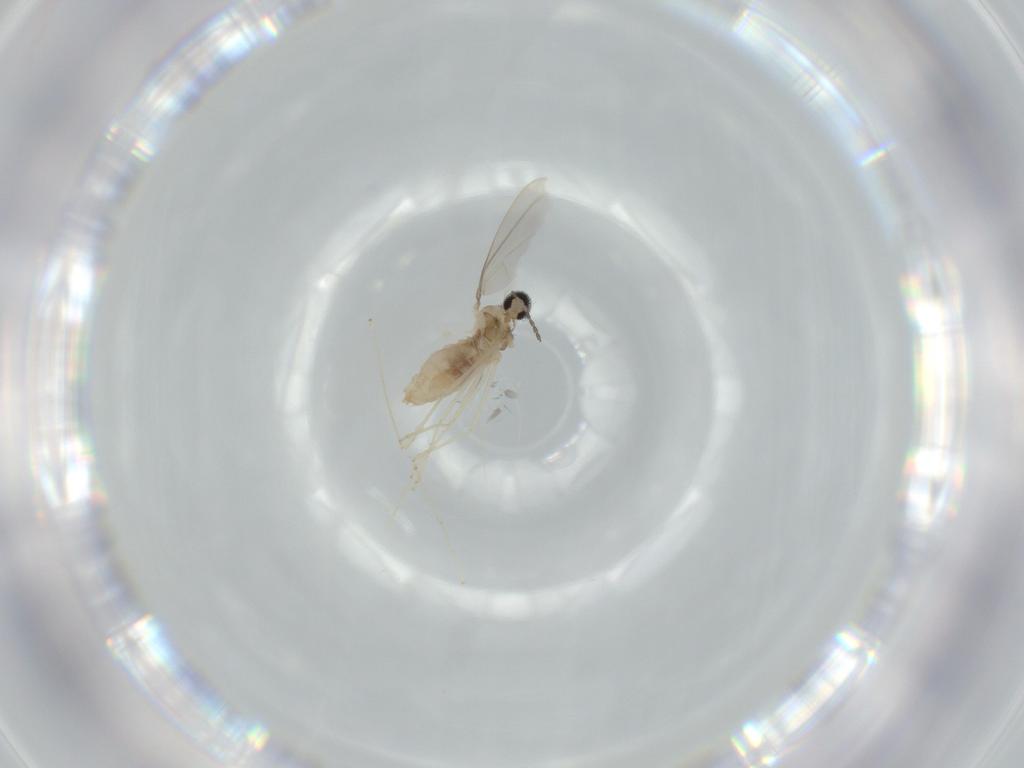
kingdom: Animalia
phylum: Arthropoda
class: Insecta
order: Diptera
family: Cecidomyiidae
